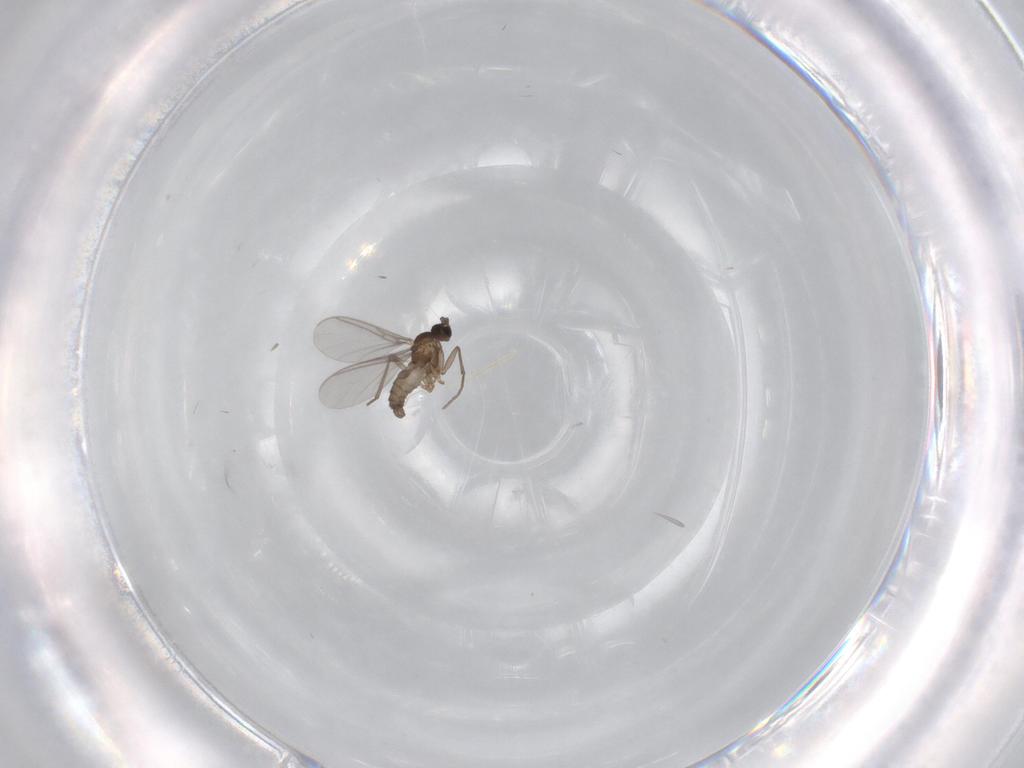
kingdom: Animalia
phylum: Arthropoda
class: Insecta
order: Diptera
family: Sciaridae
